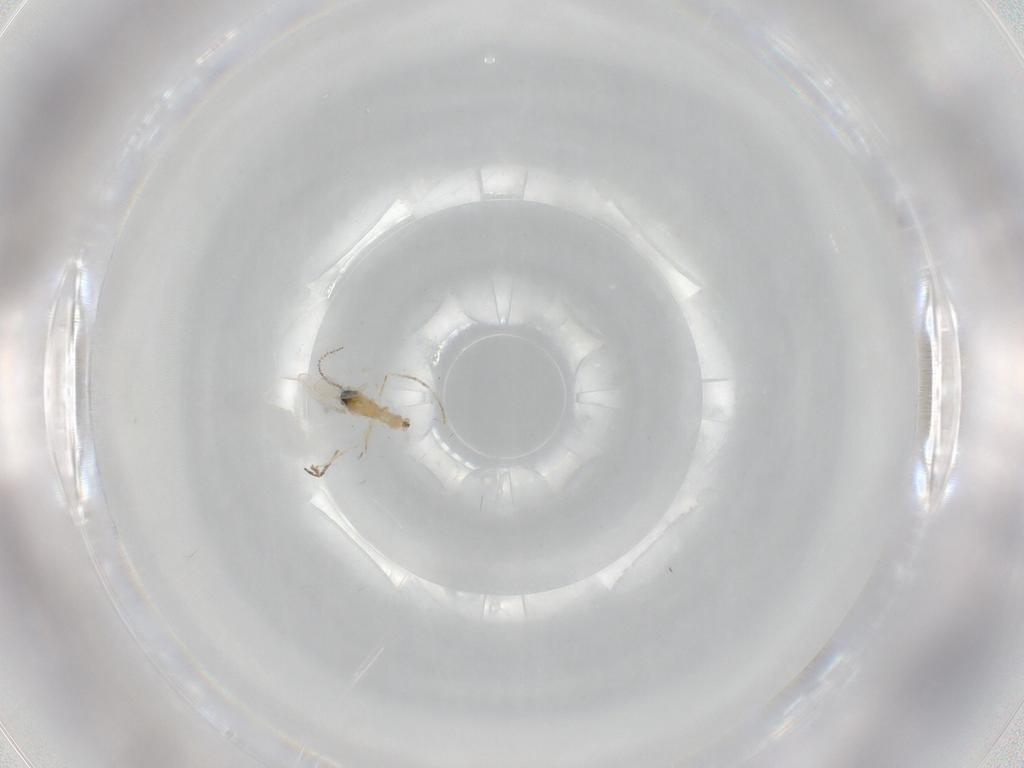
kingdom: Animalia
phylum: Arthropoda
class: Insecta
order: Diptera
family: Cecidomyiidae
